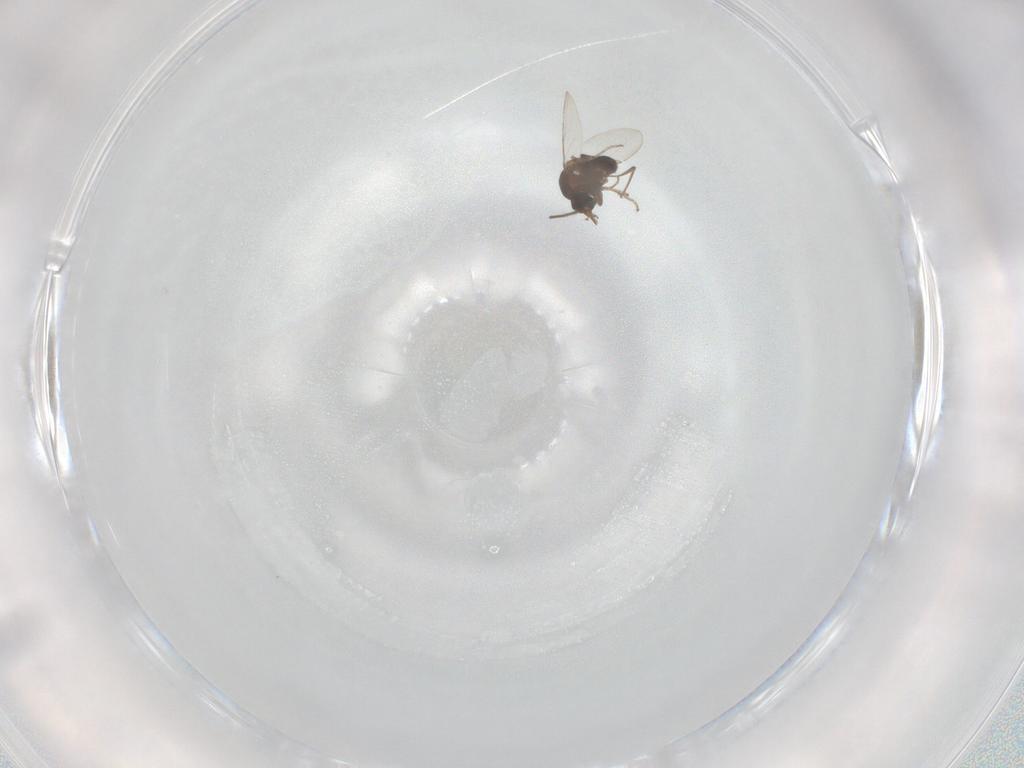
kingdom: Animalia
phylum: Arthropoda
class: Insecta
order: Diptera
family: Ceratopogonidae
